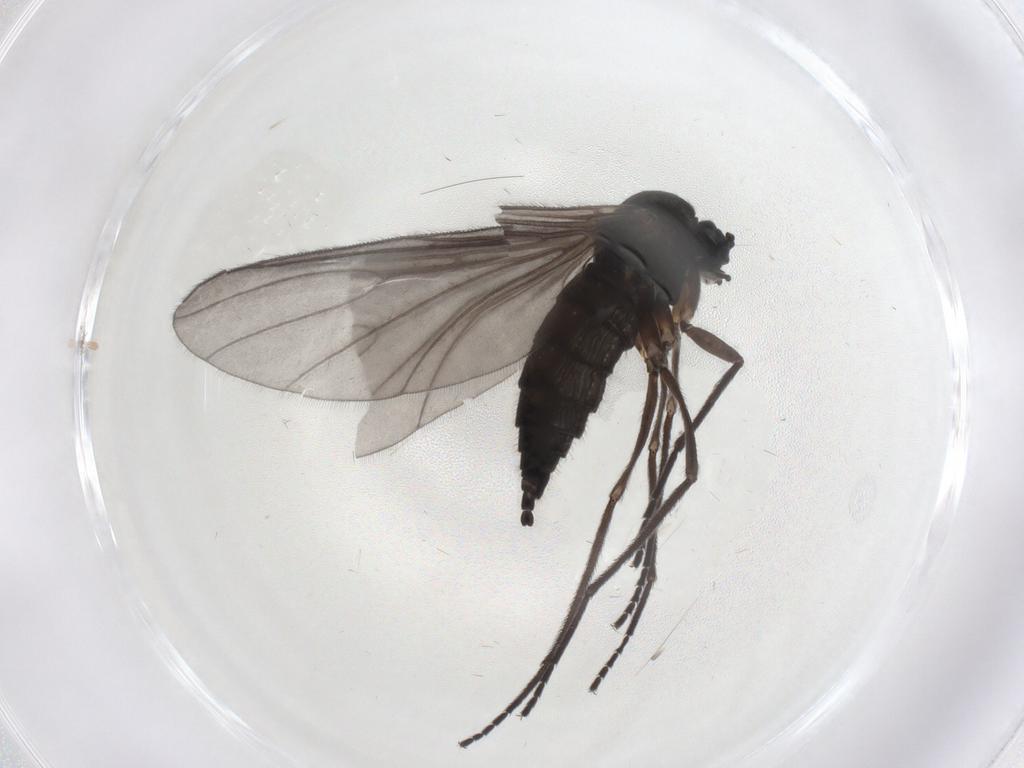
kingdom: Animalia
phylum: Arthropoda
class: Insecta
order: Diptera
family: Sciaridae
